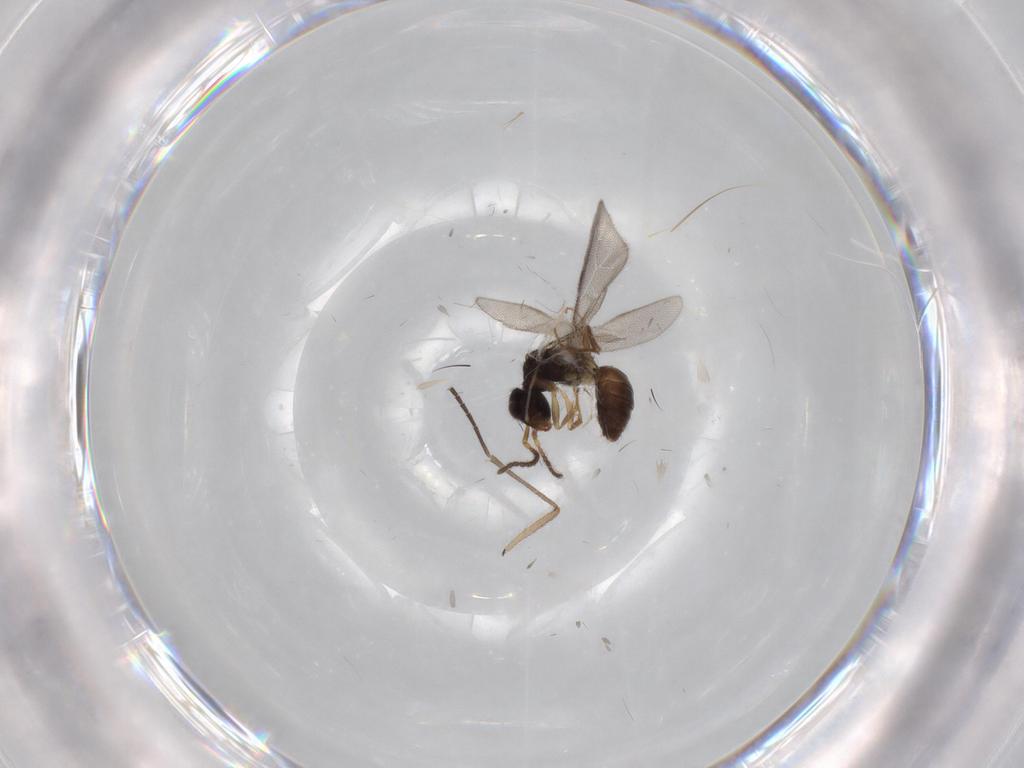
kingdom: Animalia
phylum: Arthropoda
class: Insecta
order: Hymenoptera
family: Bethylidae
